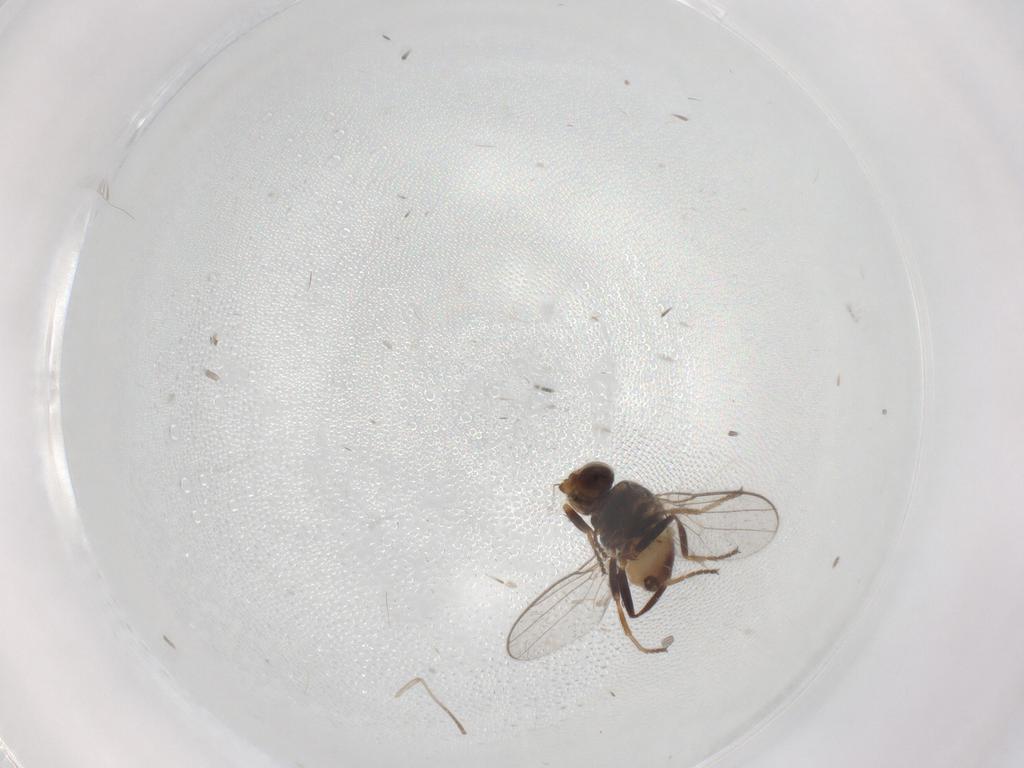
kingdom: Animalia
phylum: Arthropoda
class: Insecta
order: Diptera
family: Chloropidae
